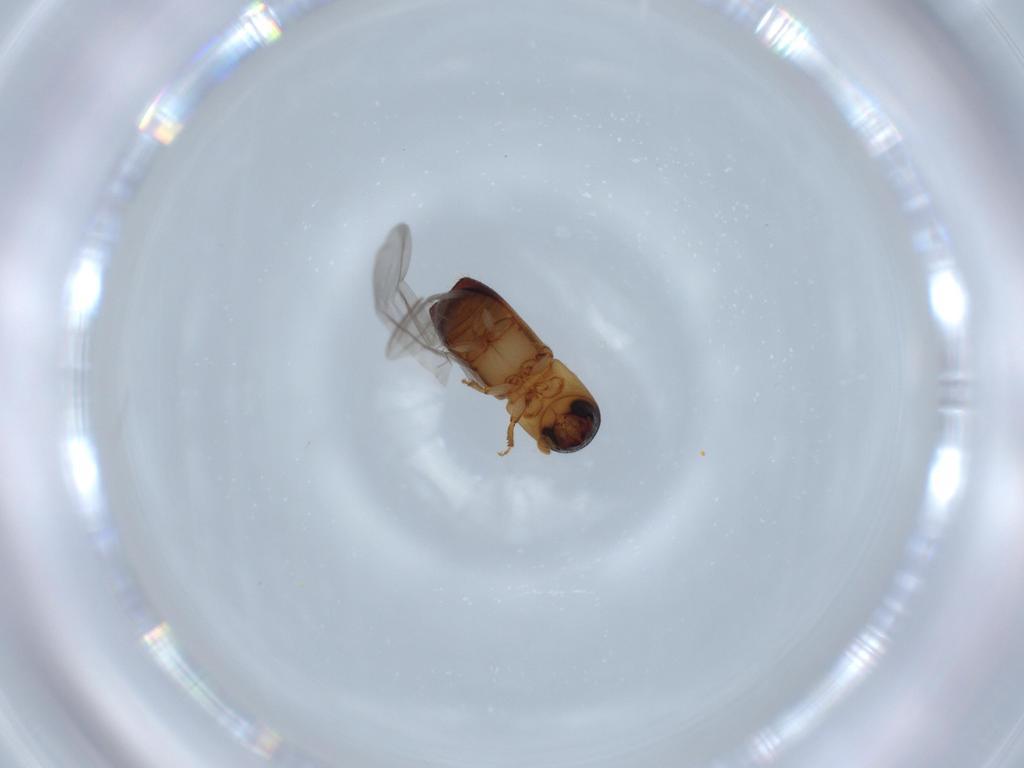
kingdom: Animalia
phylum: Arthropoda
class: Insecta
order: Coleoptera
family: Curculionidae
